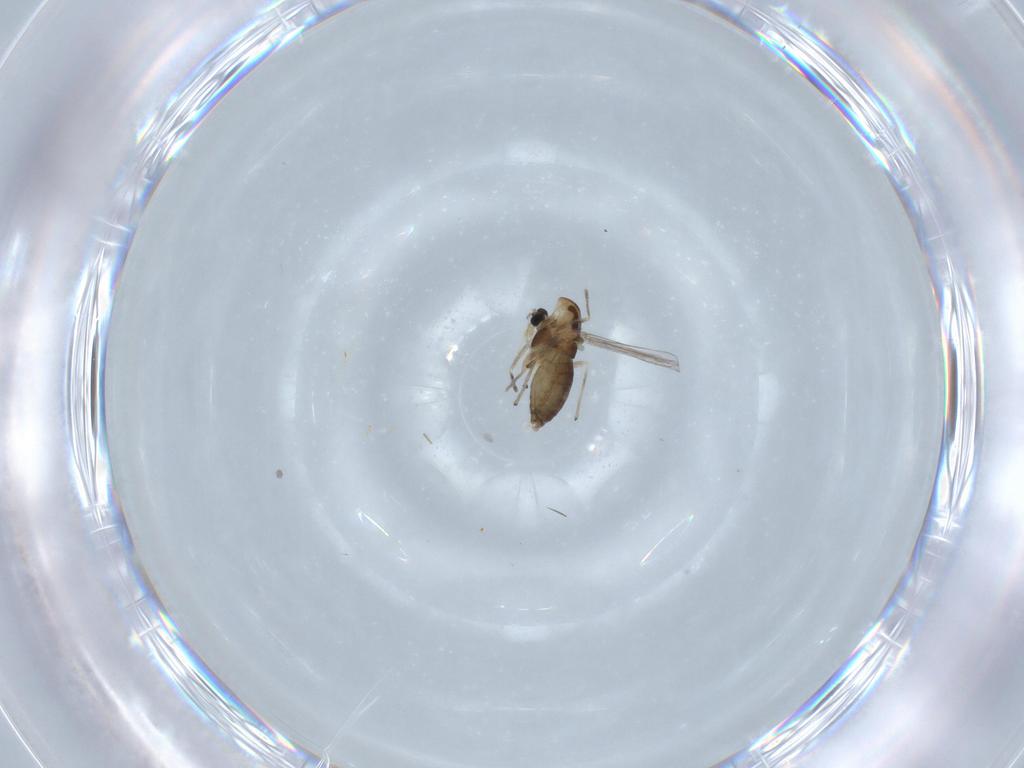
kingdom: Animalia
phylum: Arthropoda
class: Insecta
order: Diptera
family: Chironomidae
